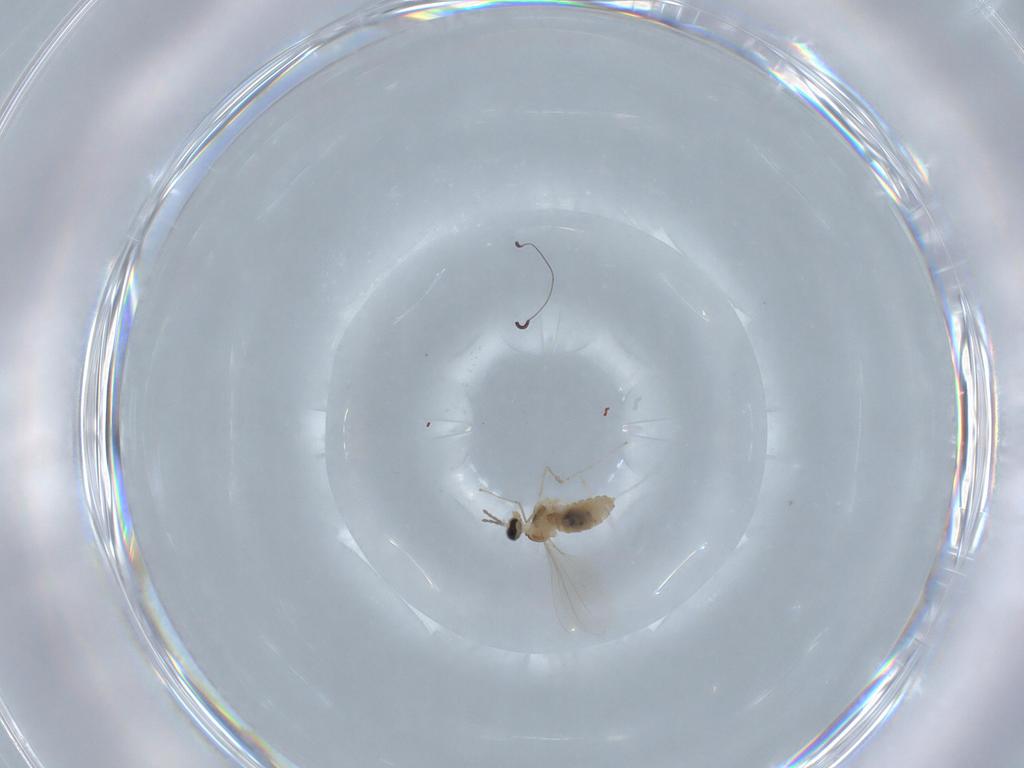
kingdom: Animalia
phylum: Arthropoda
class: Insecta
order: Diptera
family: Cecidomyiidae
